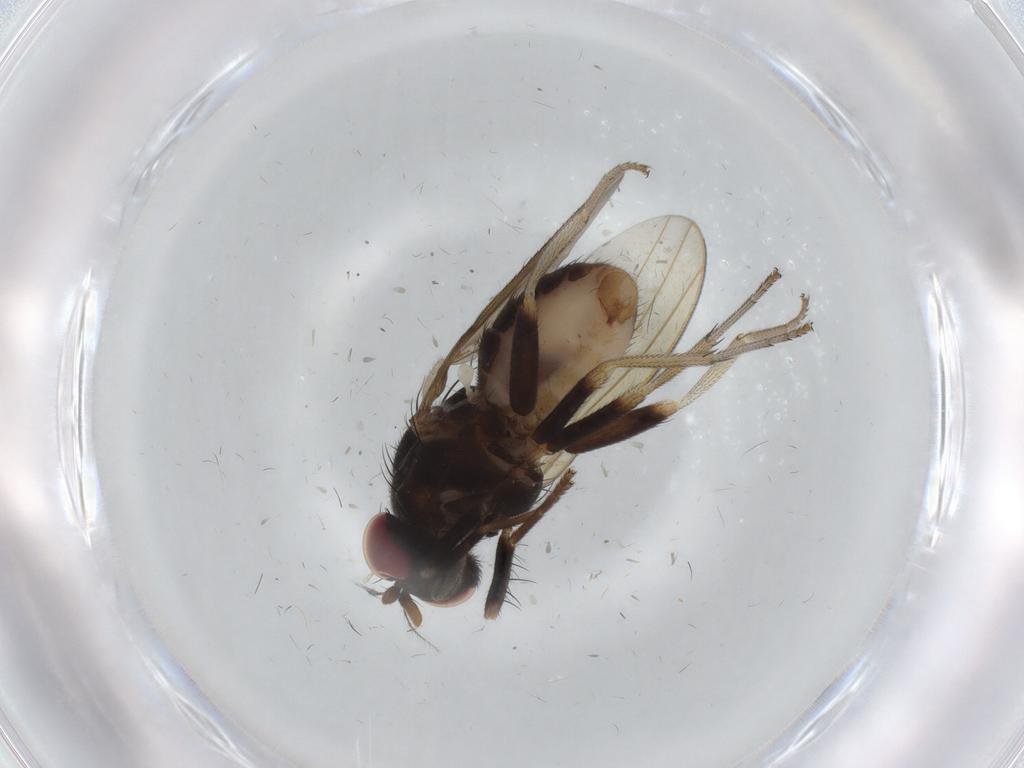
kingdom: Animalia
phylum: Arthropoda
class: Insecta
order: Diptera
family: Lauxaniidae
